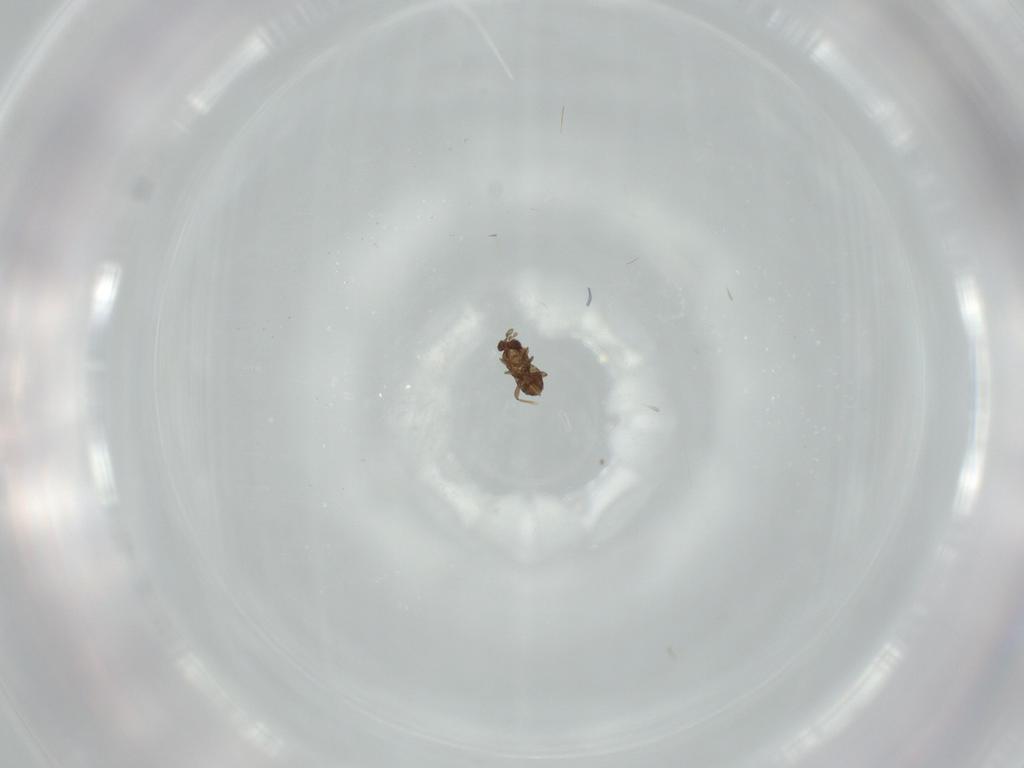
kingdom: Animalia
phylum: Arthropoda
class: Insecta
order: Hymenoptera
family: Trichogrammatidae
